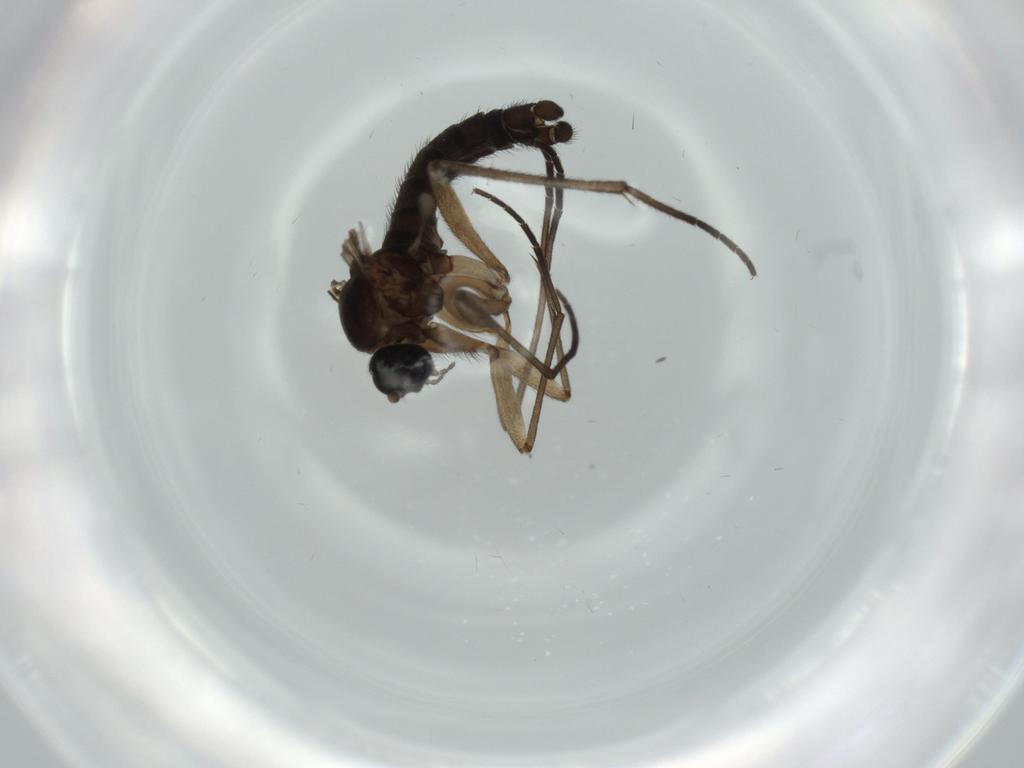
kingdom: Animalia
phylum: Arthropoda
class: Insecta
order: Diptera
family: Sciaridae
